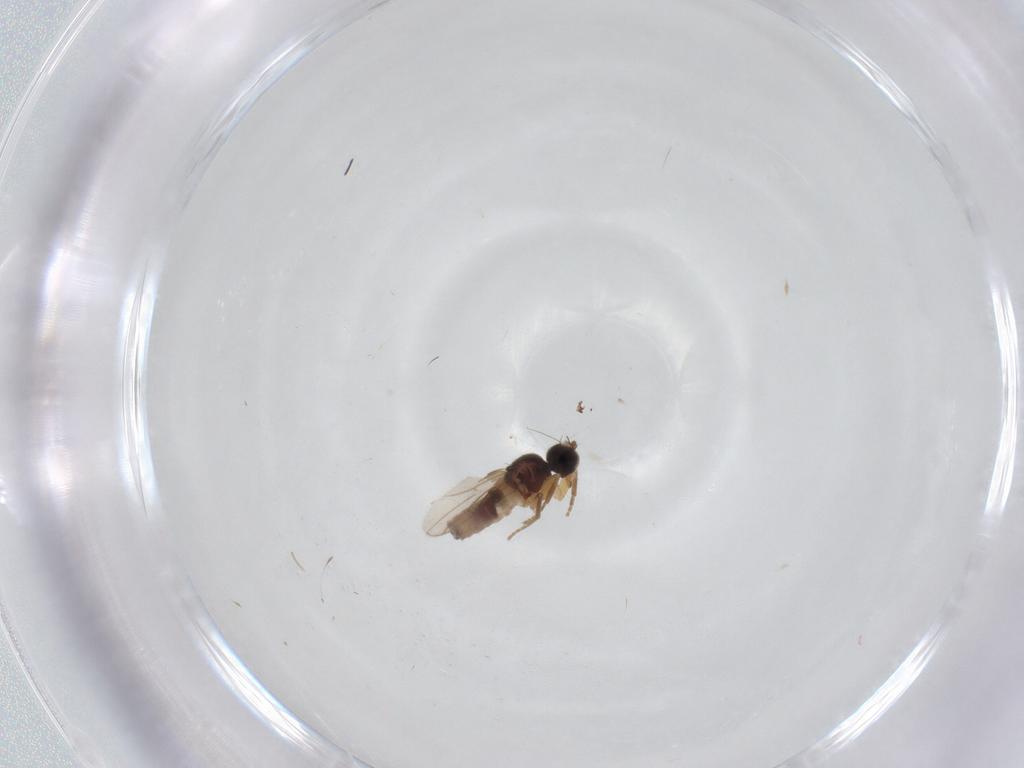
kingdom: Animalia
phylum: Arthropoda
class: Insecta
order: Diptera
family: Hybotidae
